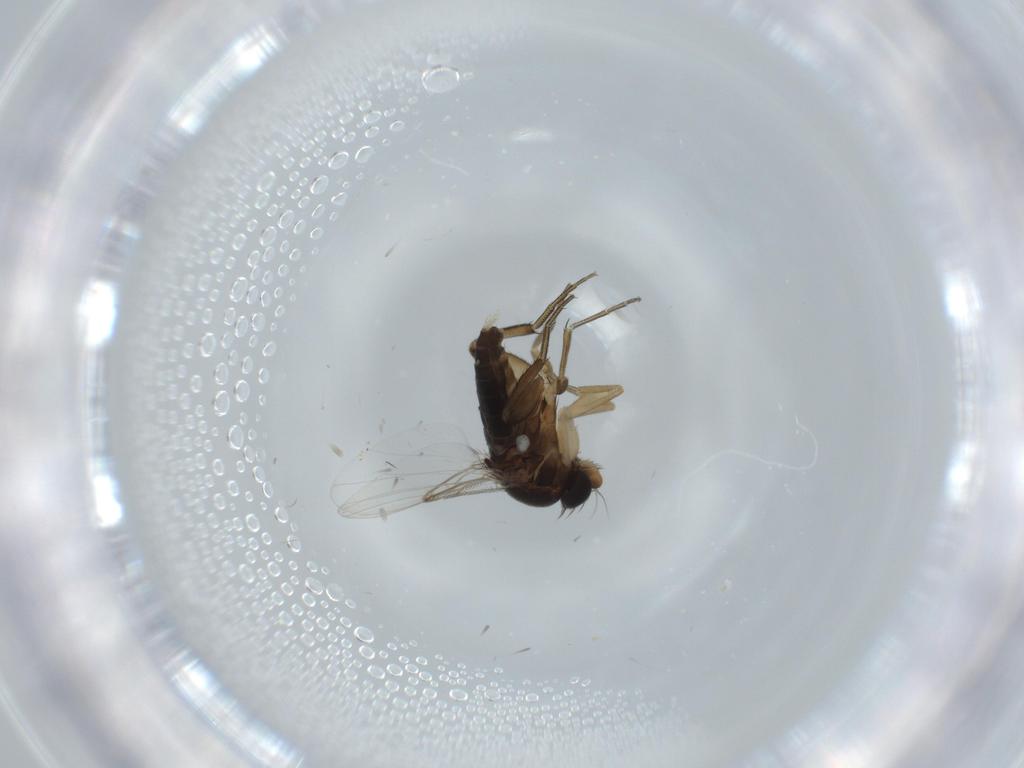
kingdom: Animalia
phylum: Arthropoda
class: Insecta
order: Diptera
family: Phoridae
